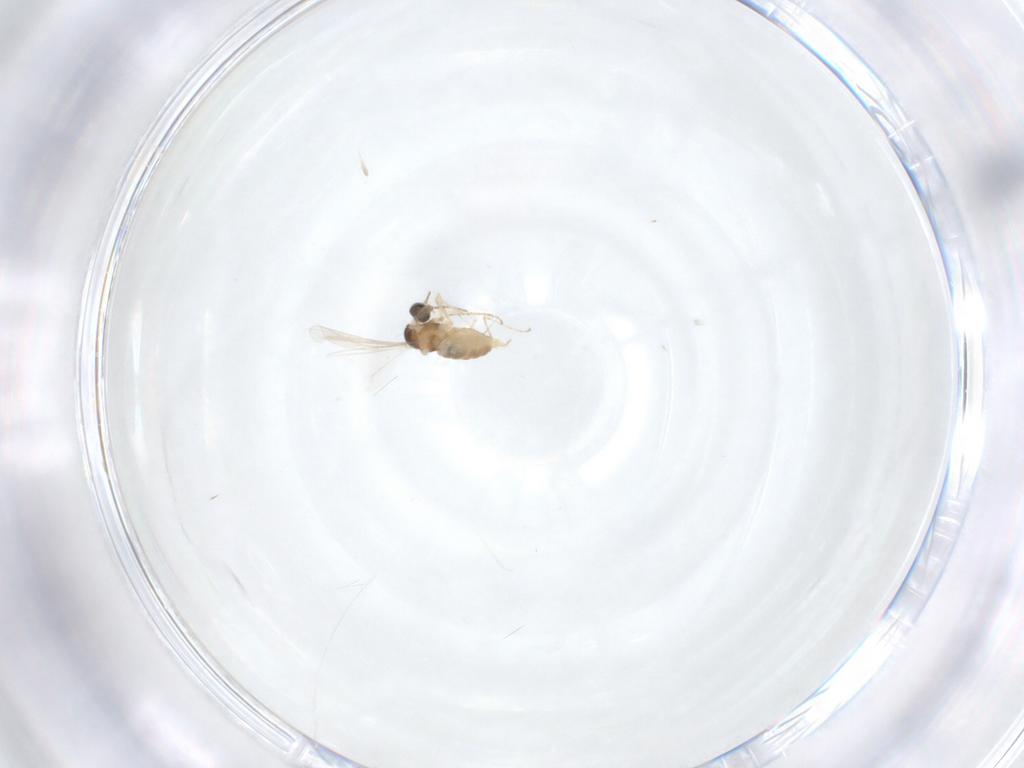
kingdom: Animalia
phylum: Arthropoda
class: Insecta
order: Diptera
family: Cecidomyiidae
